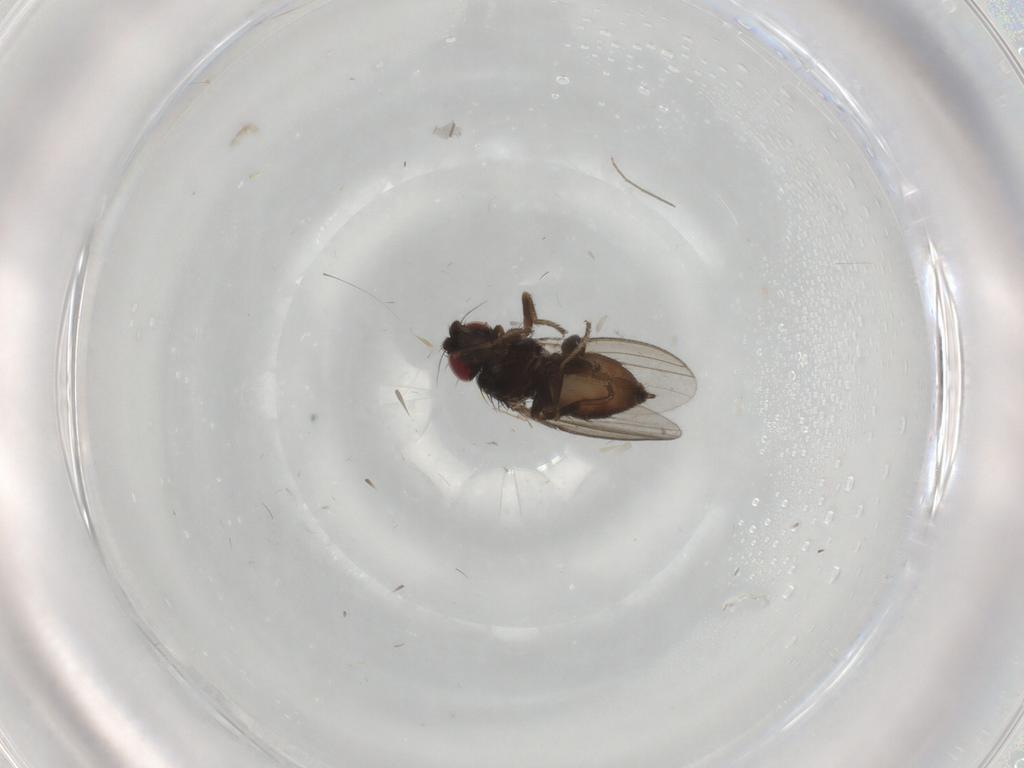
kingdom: Animalia
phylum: Arthropoda
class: Insecta
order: Diptera
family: Milichiidae
